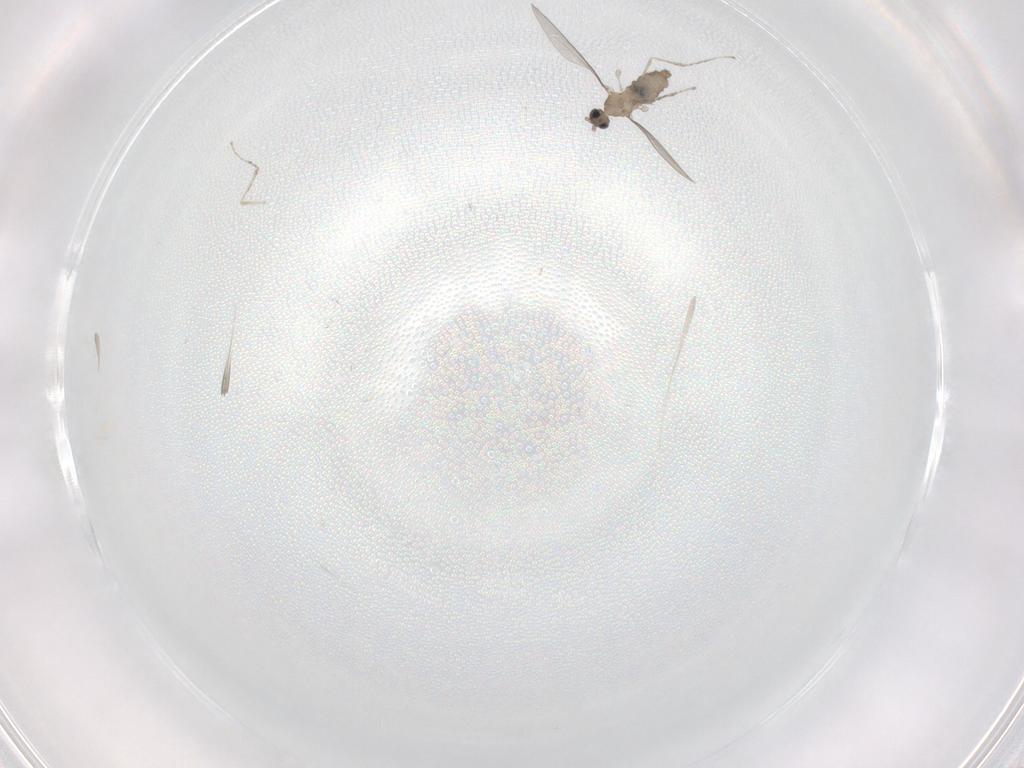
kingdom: Animalia
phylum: Arthropoda
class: Insecta
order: Diptera
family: Cecidomyiidae
